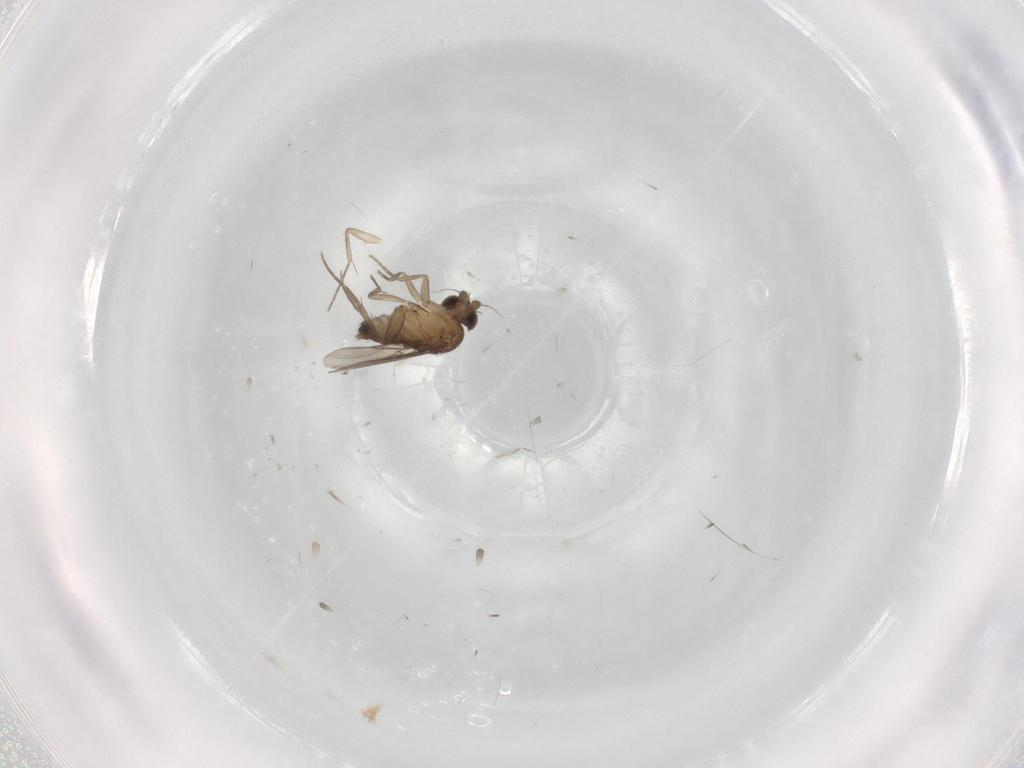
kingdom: Animalia
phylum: Arthropoda
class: Insecta
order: Diptera
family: Phoridae
